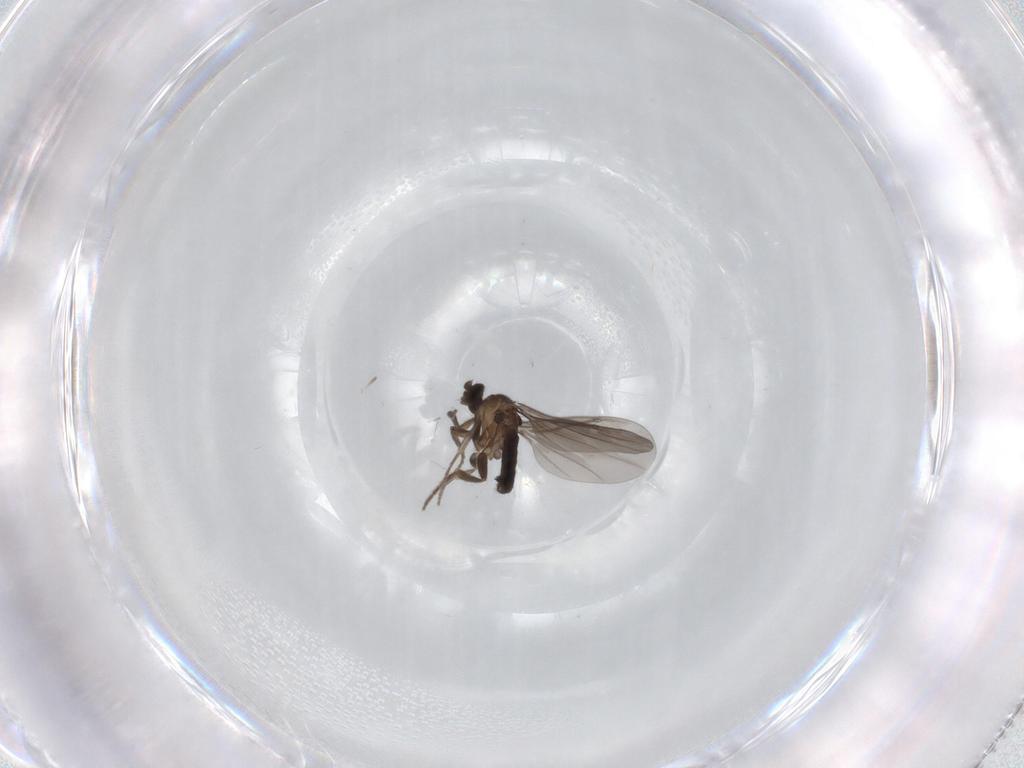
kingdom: Animalia
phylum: Arthropoda
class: Insecta
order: Diptera
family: Phoridae
